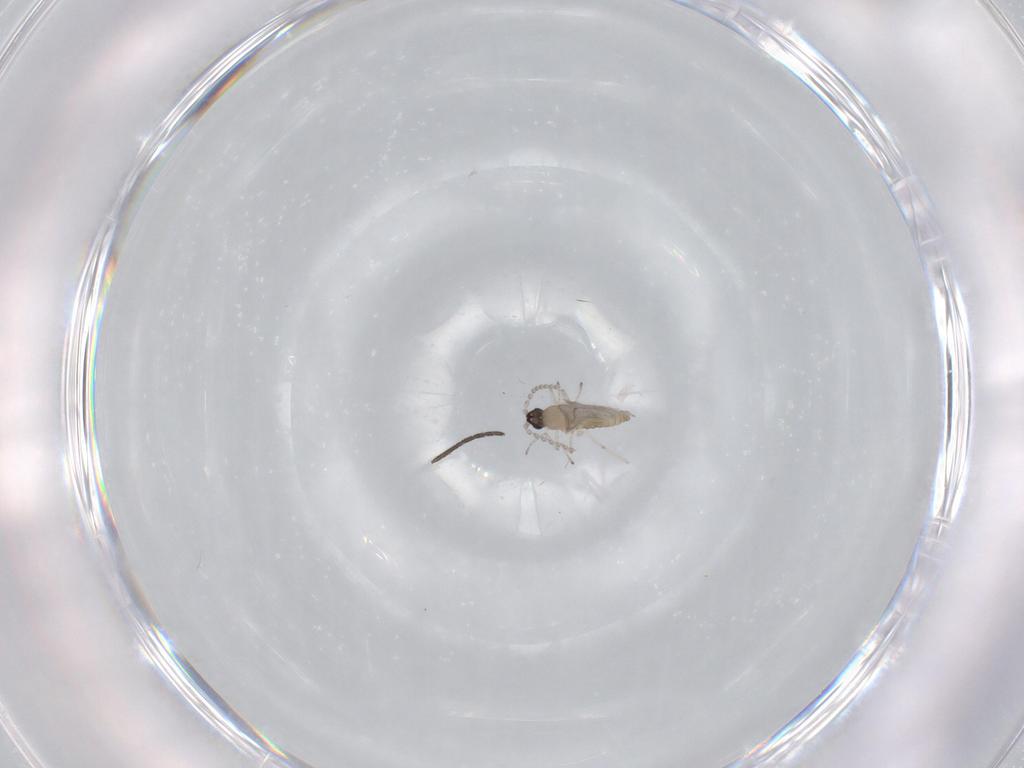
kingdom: Animalia
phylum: Arthropoda
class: Insecta
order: Diptera
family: Cecidomyiidae
